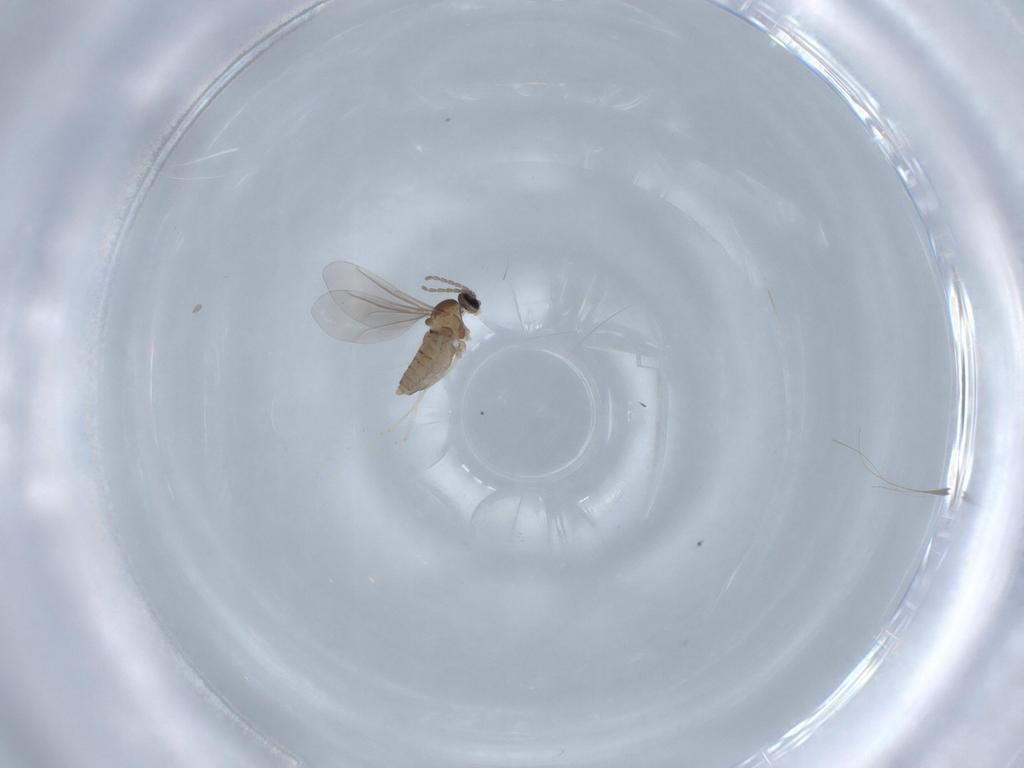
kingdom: Animalia
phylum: Arthropoda
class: Insecta
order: Diptera
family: Cecidomyiidae
